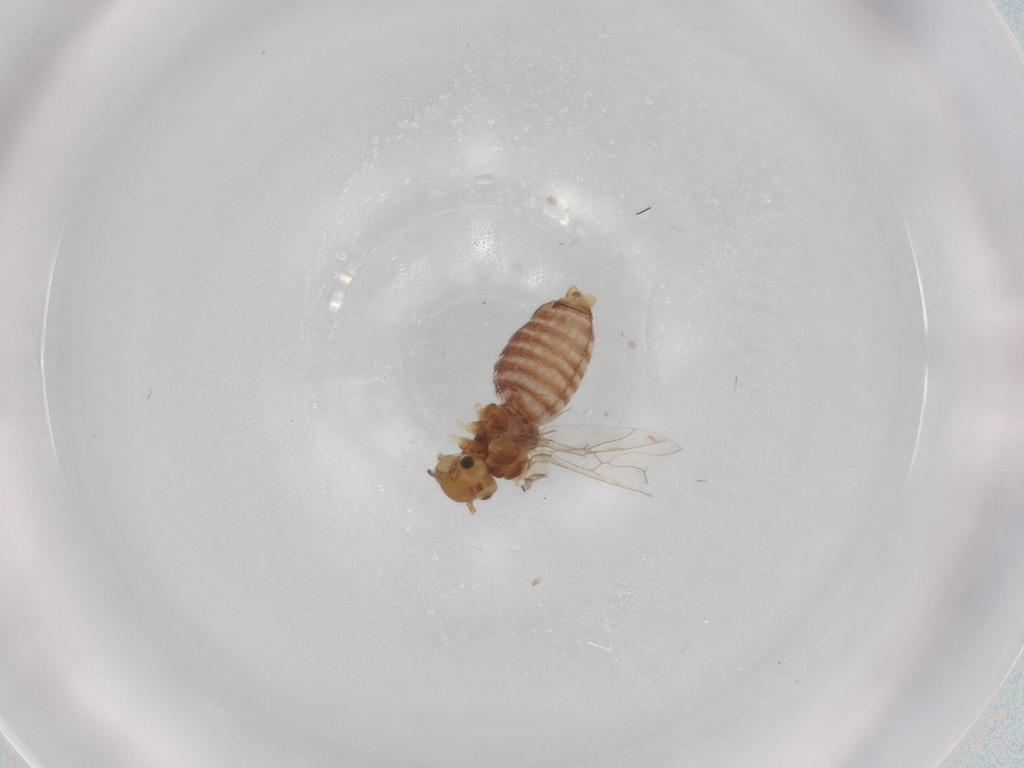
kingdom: Animalia
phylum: Arthropoda
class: Insecta
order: Psocodea
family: Lachesillidae
